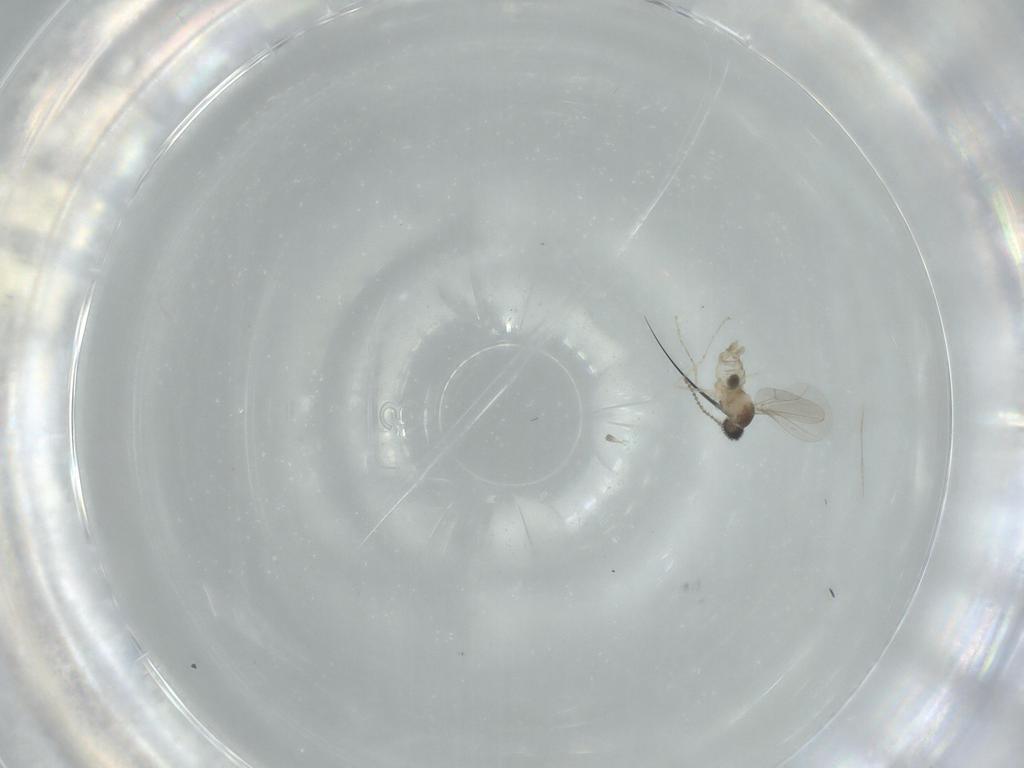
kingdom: Animalia
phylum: Arthropoda
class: Insecta
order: Diptera
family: Cecidomyiidae
